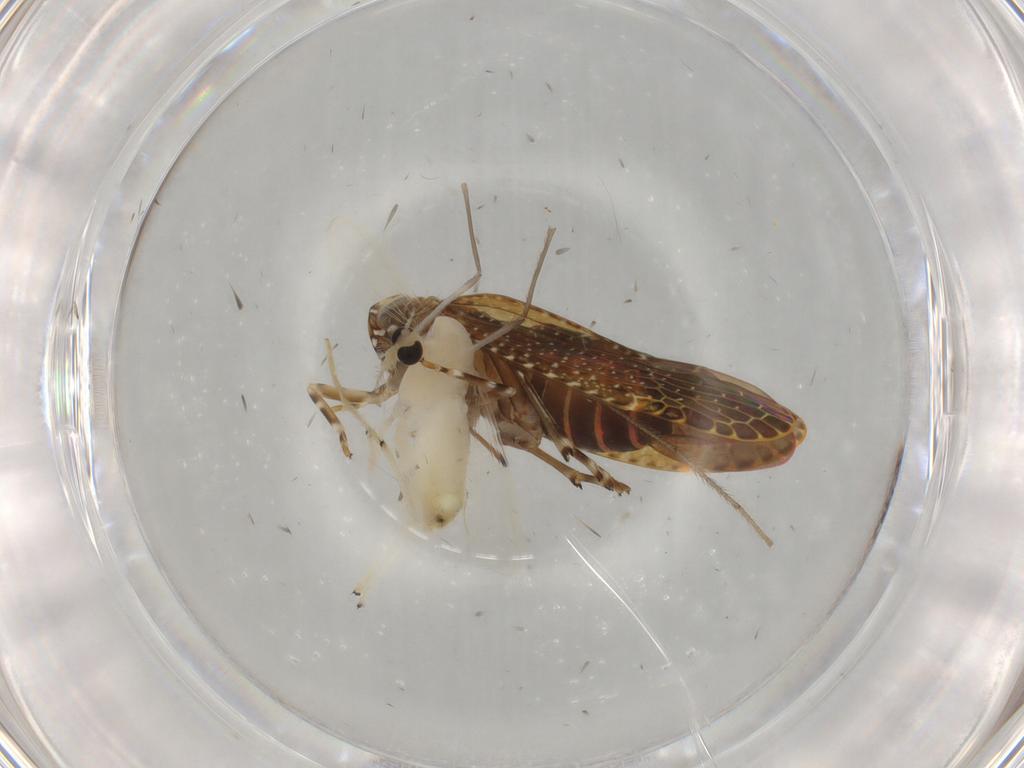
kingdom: Animalia
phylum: Arthropoda
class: Insecta
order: Diptera
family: Chironomidae
